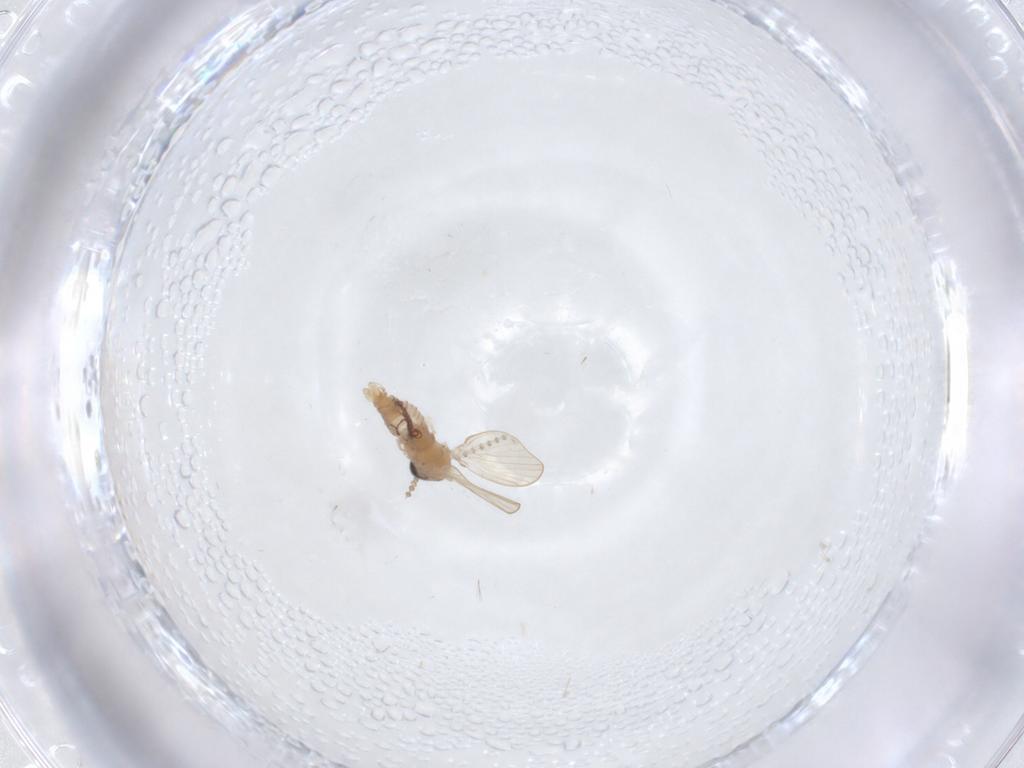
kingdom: Animalia
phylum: Arthropoda
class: Insecta
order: Diptera
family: Psychodidae
